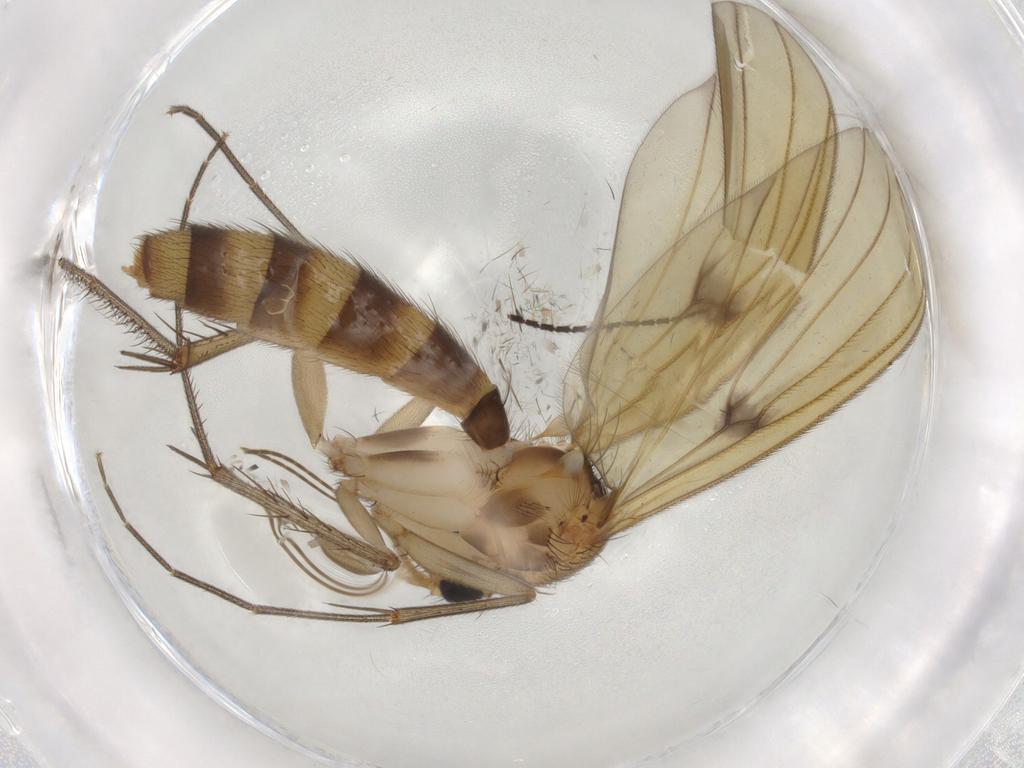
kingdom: Animalia
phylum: Arthropoda
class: Insecta
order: Diptera
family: Mycetophilidae
